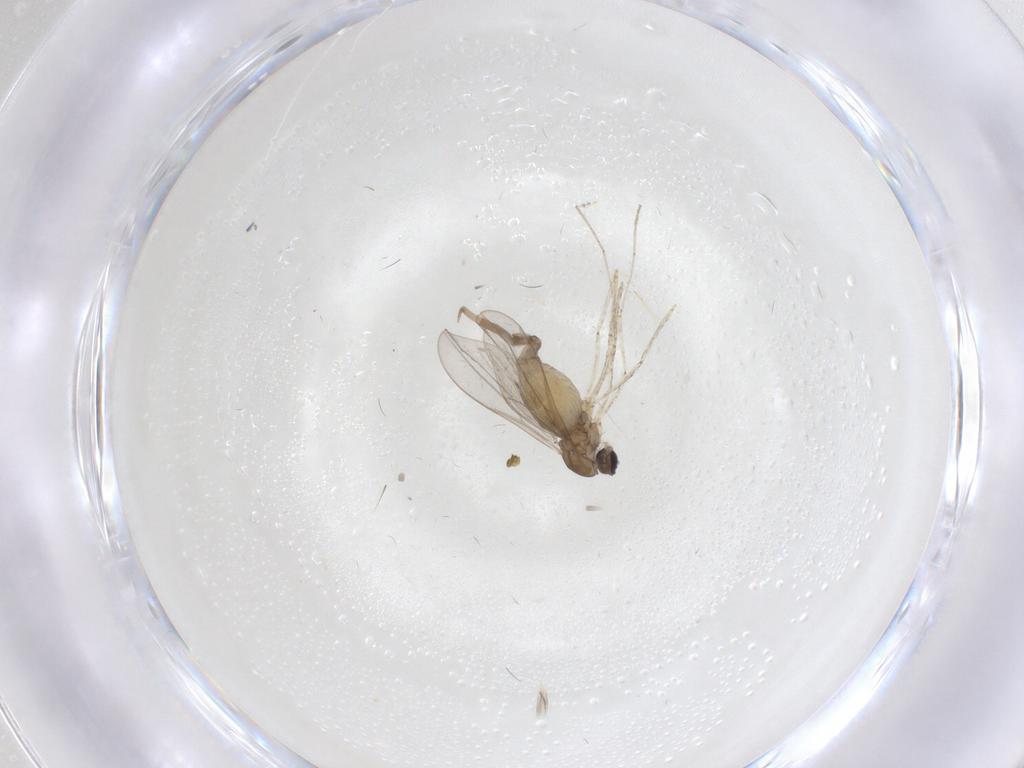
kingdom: Animalia
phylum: Arthropoda
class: Insecta
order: Diptera
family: Cecidomyiidae
